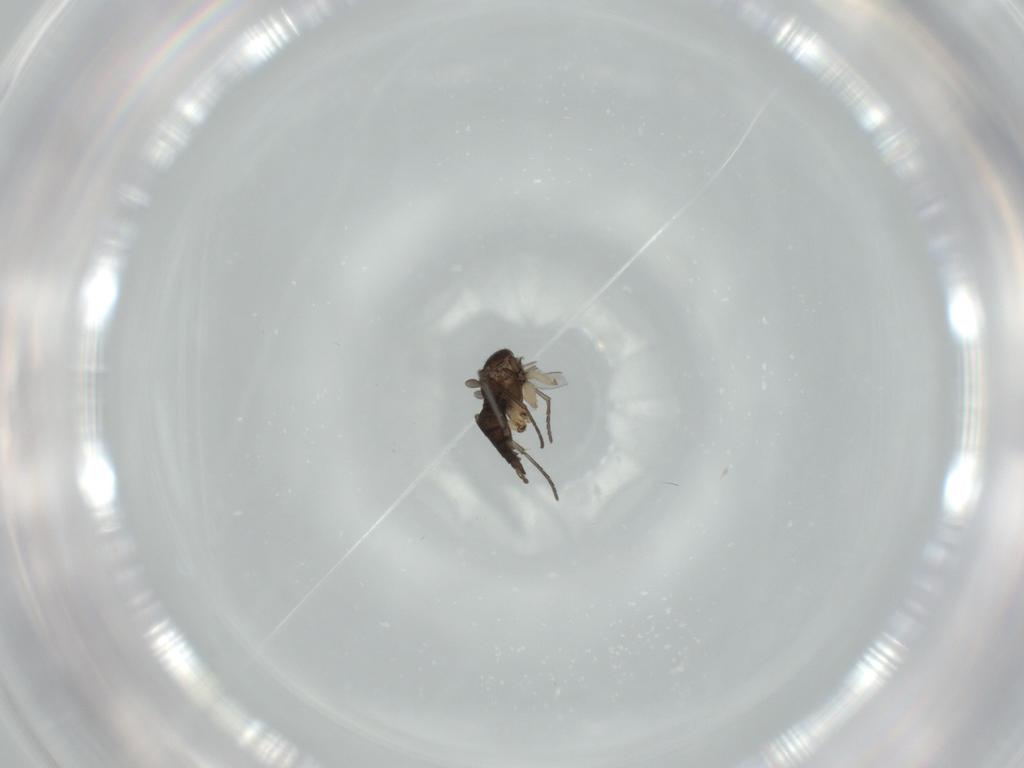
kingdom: Animalia
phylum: Arthropoda
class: Insecta
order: Diptera
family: Sciaridae
